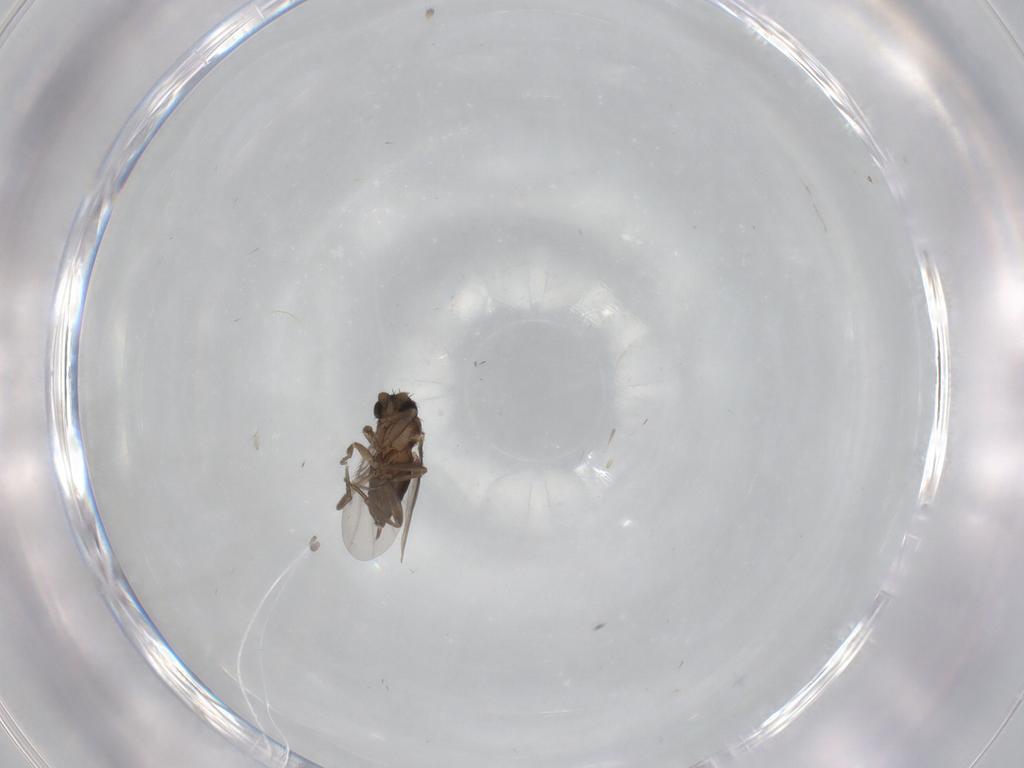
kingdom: Animalia
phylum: Arthropoda
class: Insecta
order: Diptera
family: Phoridae
